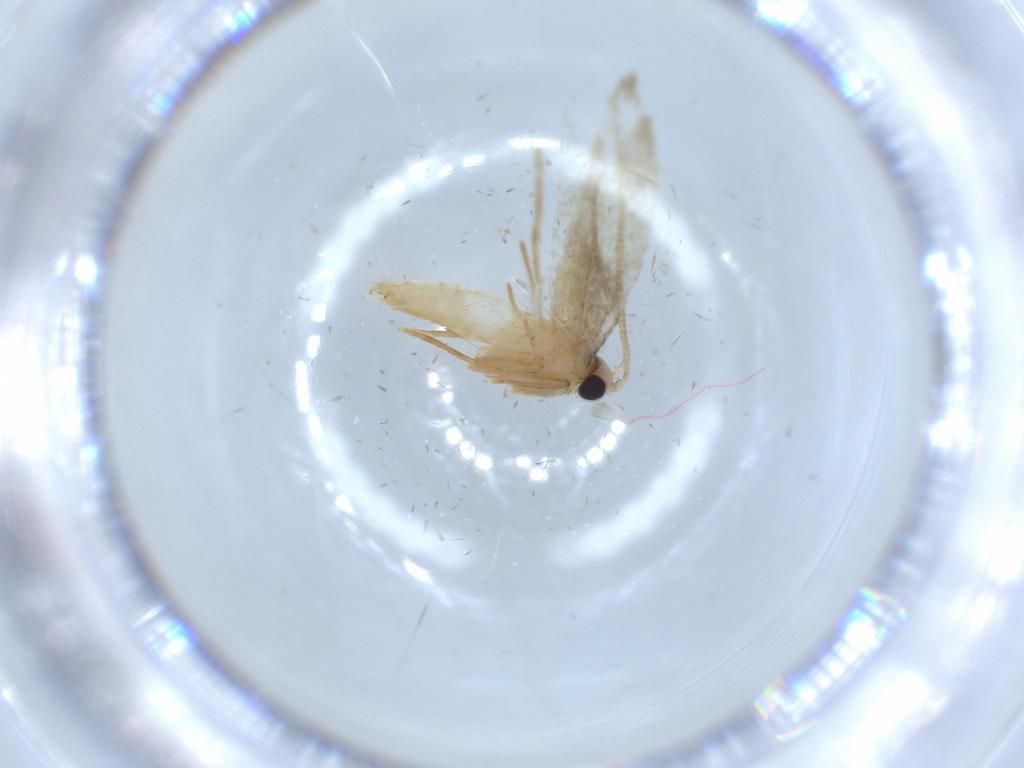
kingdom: Animalia
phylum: Arthropoda
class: Insecta
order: Lepidoptera
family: Tineidae
